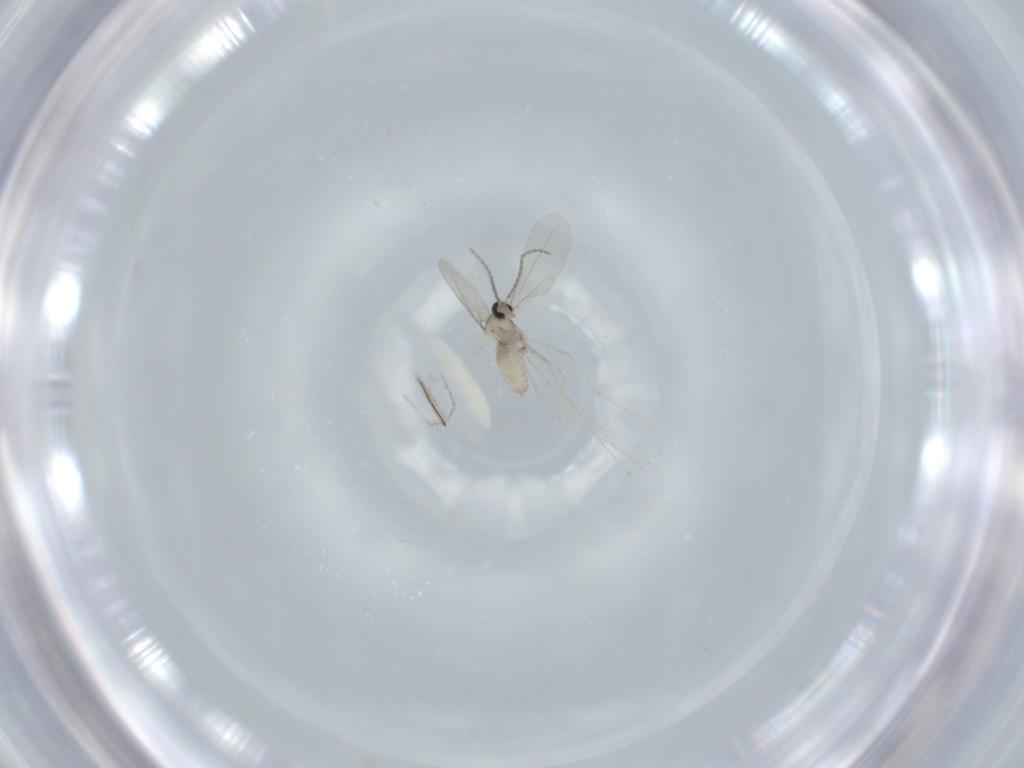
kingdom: Animalia
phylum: Arthropoda
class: Insecta
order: Diptera
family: Cecidomyiidae
